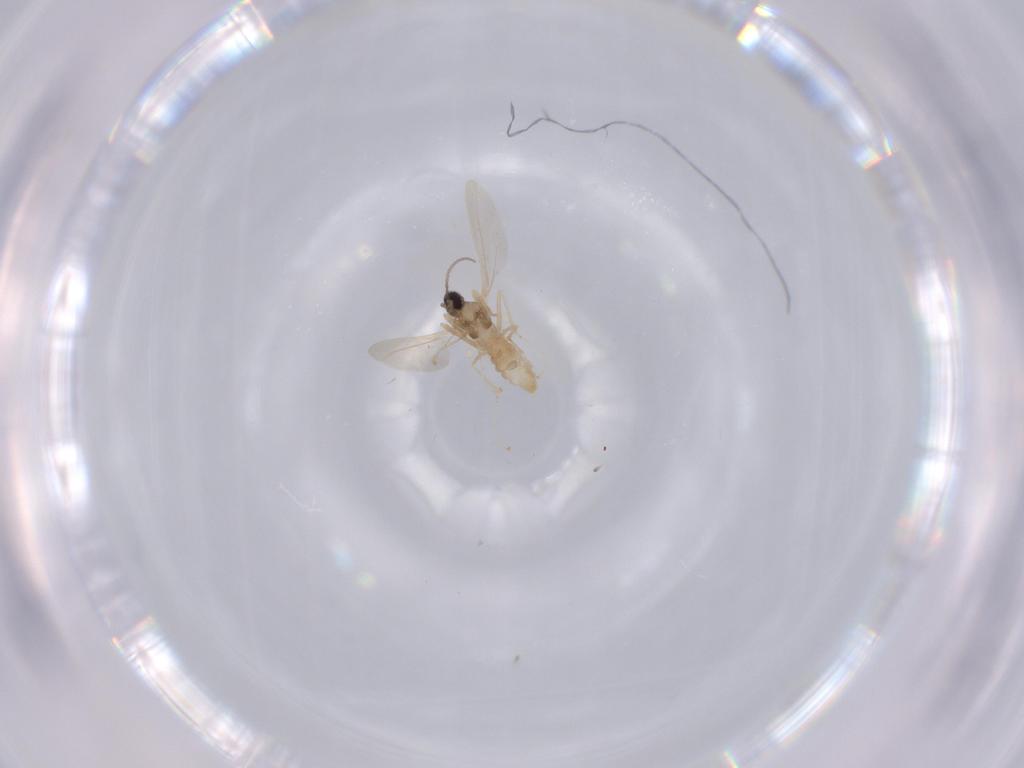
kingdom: Animalia
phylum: Arthropoda
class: Insecta
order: Diptera
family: Cecidomyiidae
